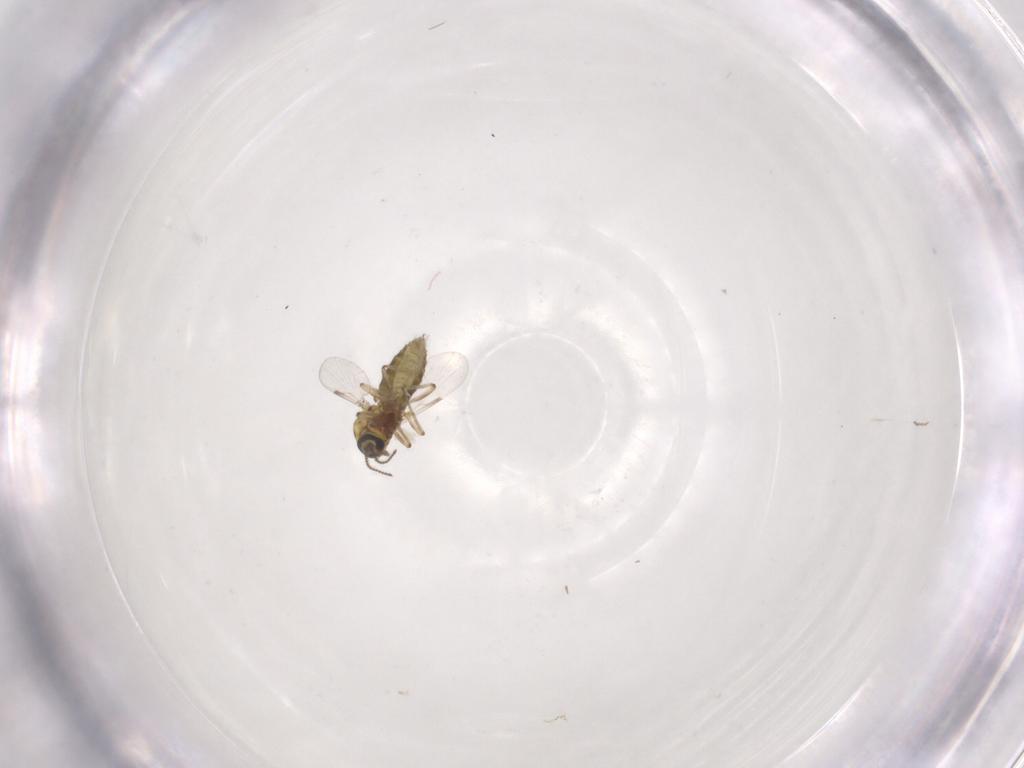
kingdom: Animalia
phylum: Arthropoda
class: Insecta
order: Diptera
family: Ceratopogonidae
